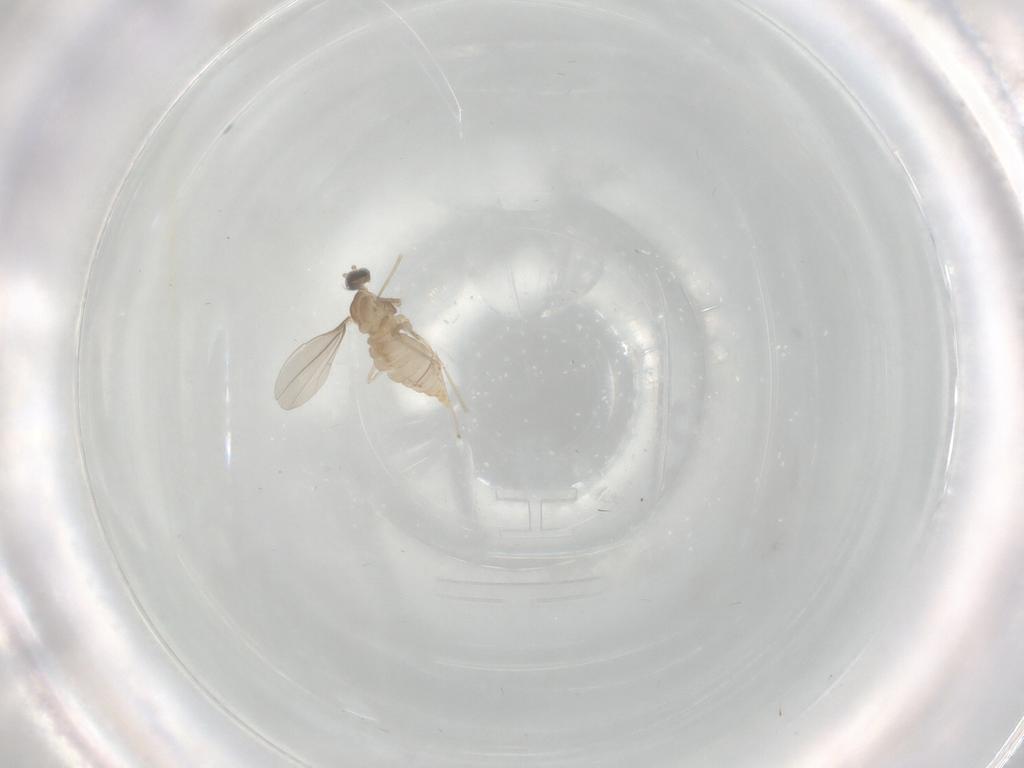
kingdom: Animalia
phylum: Arthropoda
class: Insecta
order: Diptera
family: Cecidomyiidae
